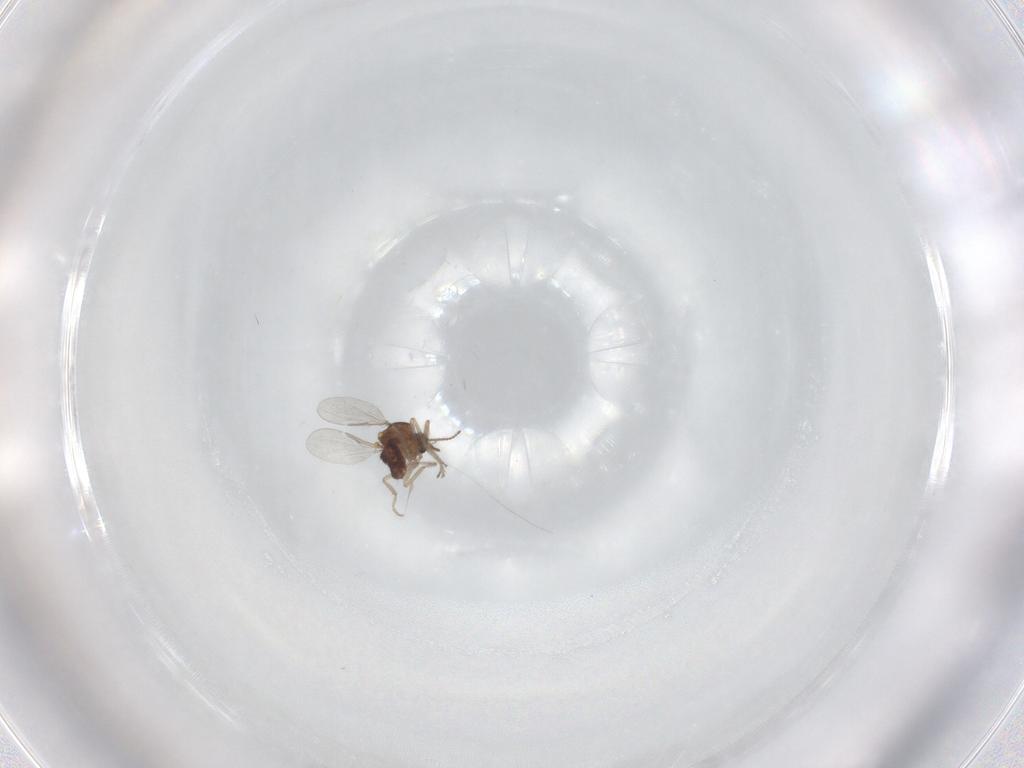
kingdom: Animalia
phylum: Arthropoda
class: Insecta
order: Diptera
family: Ceratopogonidae
